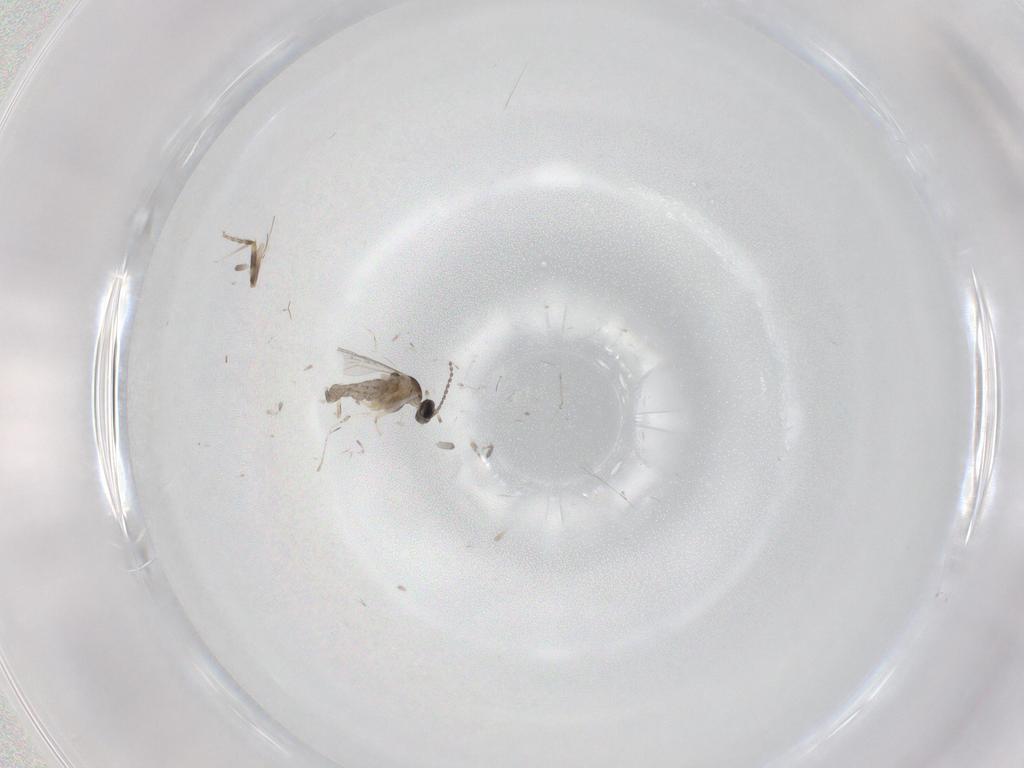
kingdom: Animalia
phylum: Arthropoda
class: Insecta
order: Diptera
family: Cecidomyiidae
